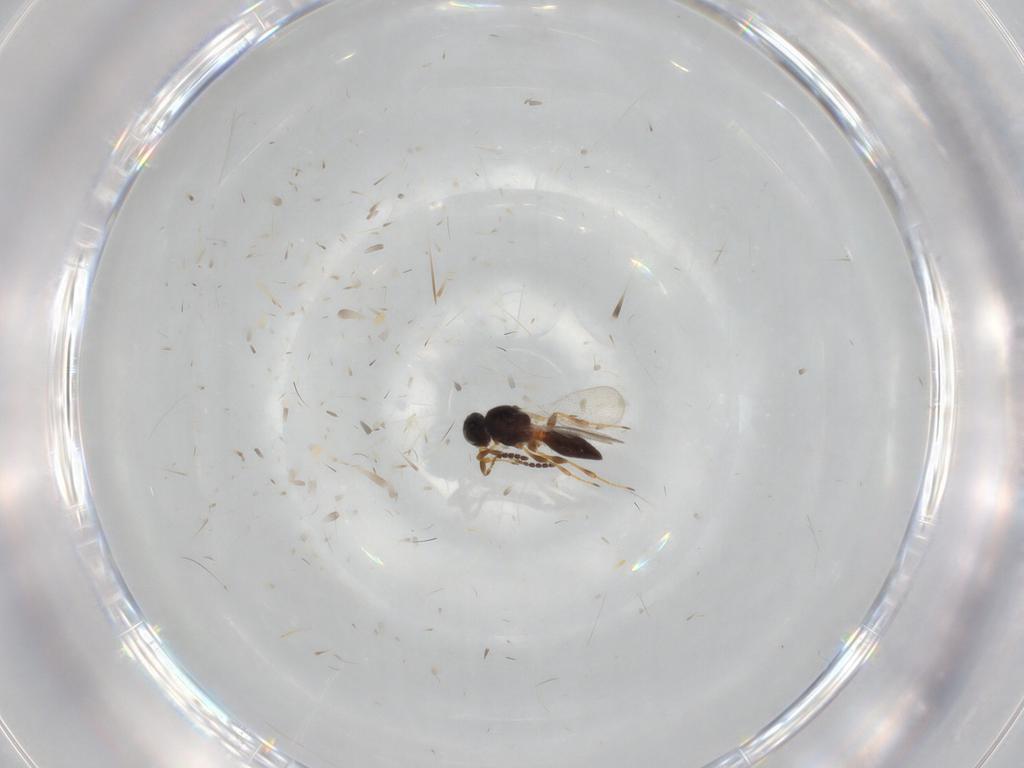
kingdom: Animalia
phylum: Arthropoda
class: Insecta
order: Hymenoptera
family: Platygastridae
